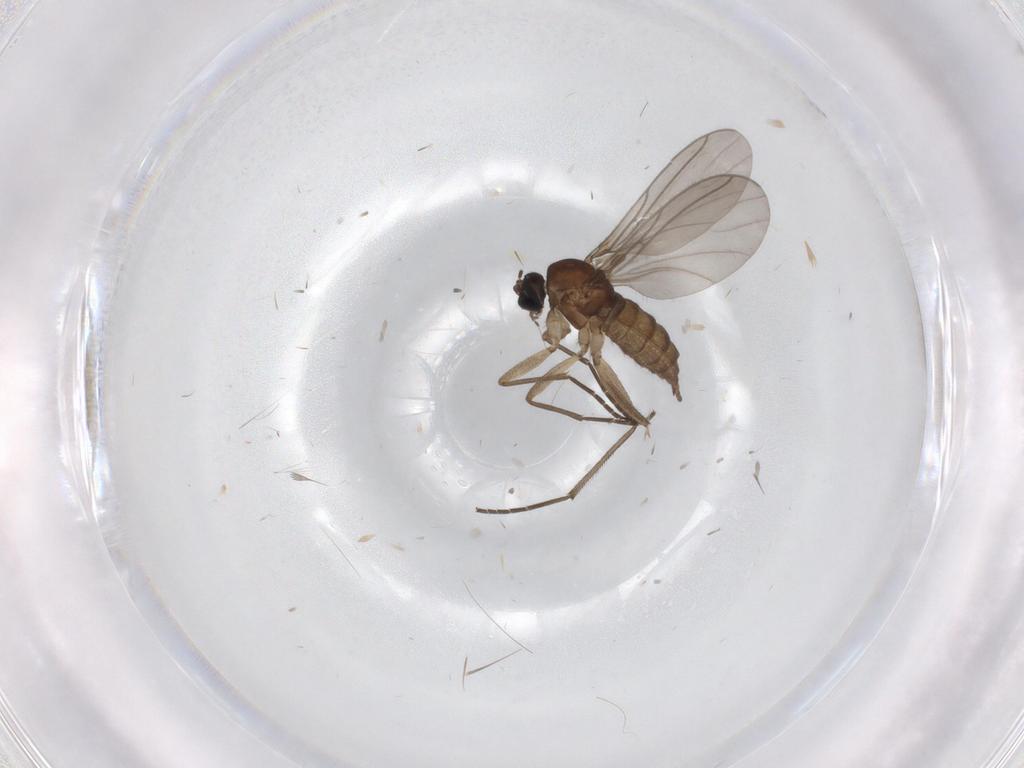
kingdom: Animalia
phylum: Arthropoda
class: Insecta
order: Diptera
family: Sciaridae
